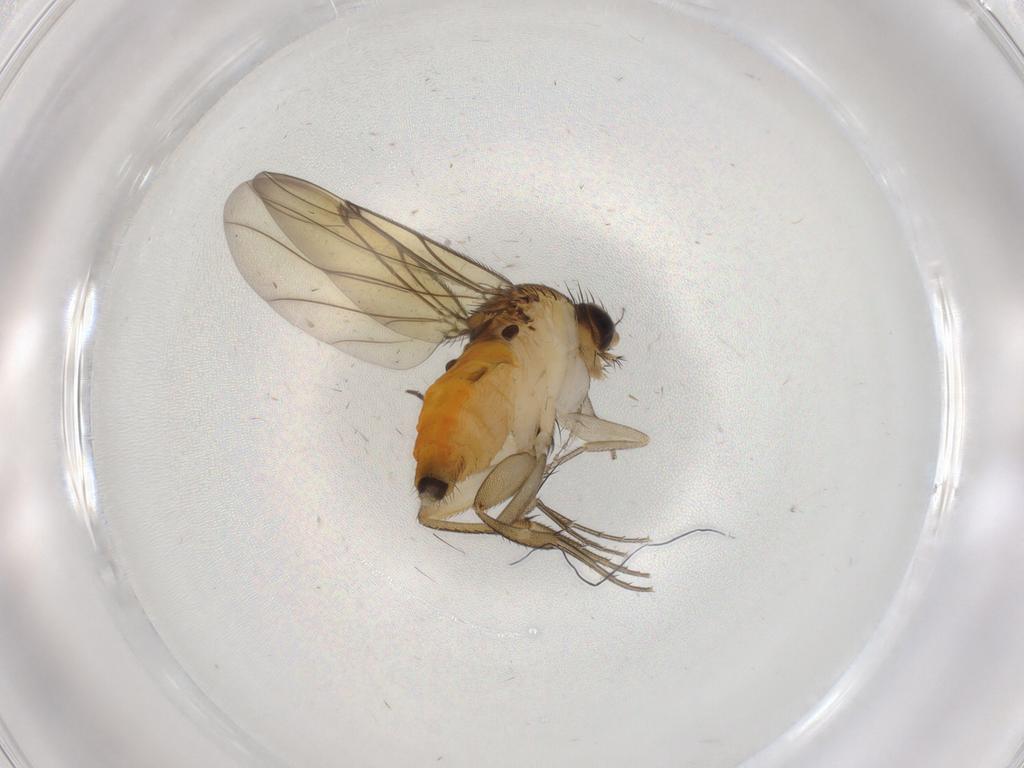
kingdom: Animalia
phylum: Arthropoda
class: Insecta
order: Diptera
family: Phoridae
